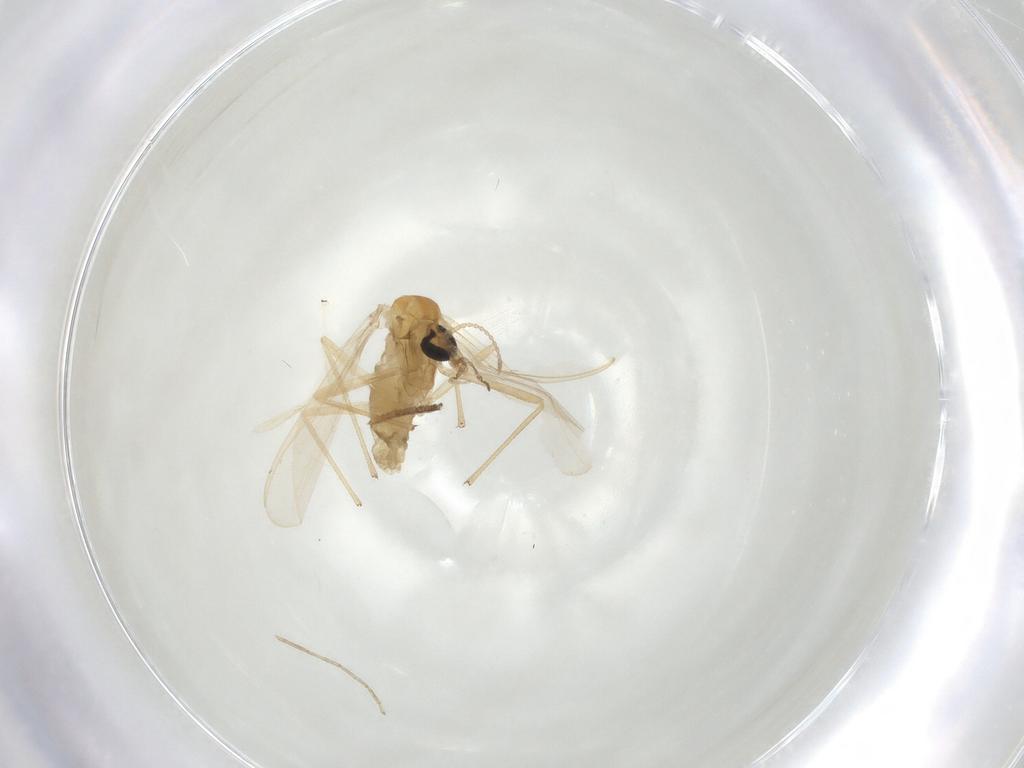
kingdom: Animalia
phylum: Arthropoda
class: Insecta
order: Diptera
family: Chironomidae
